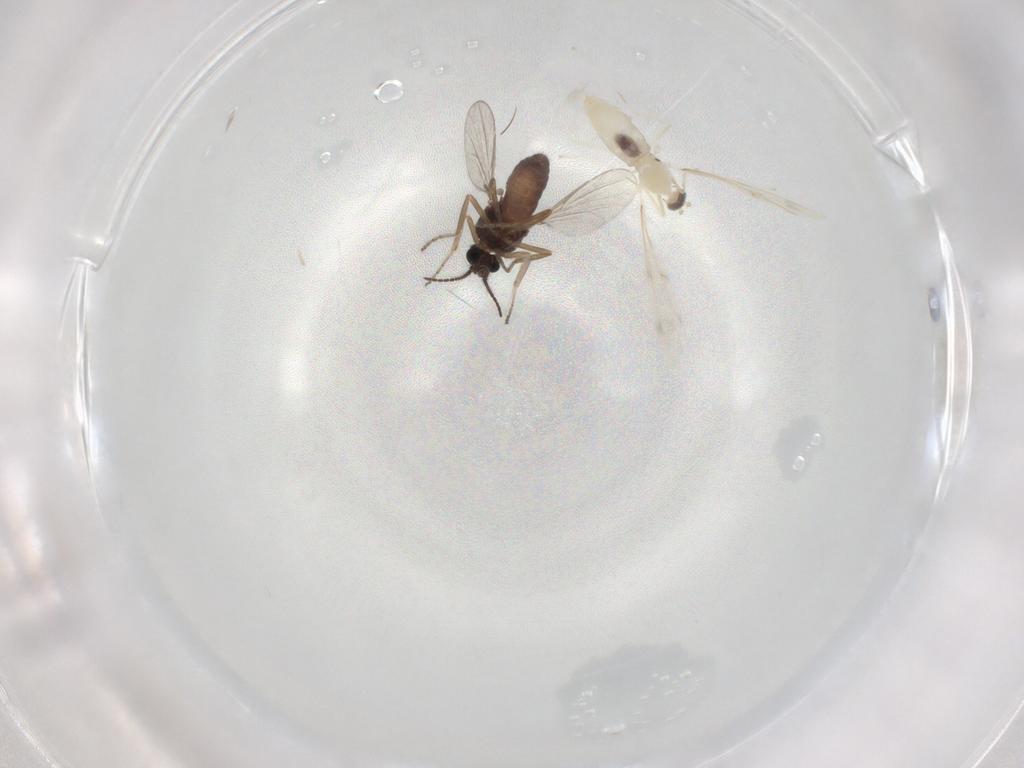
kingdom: Animalia
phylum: Arthropoda
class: Insecta
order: Diptera
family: Ceratopogonidae
